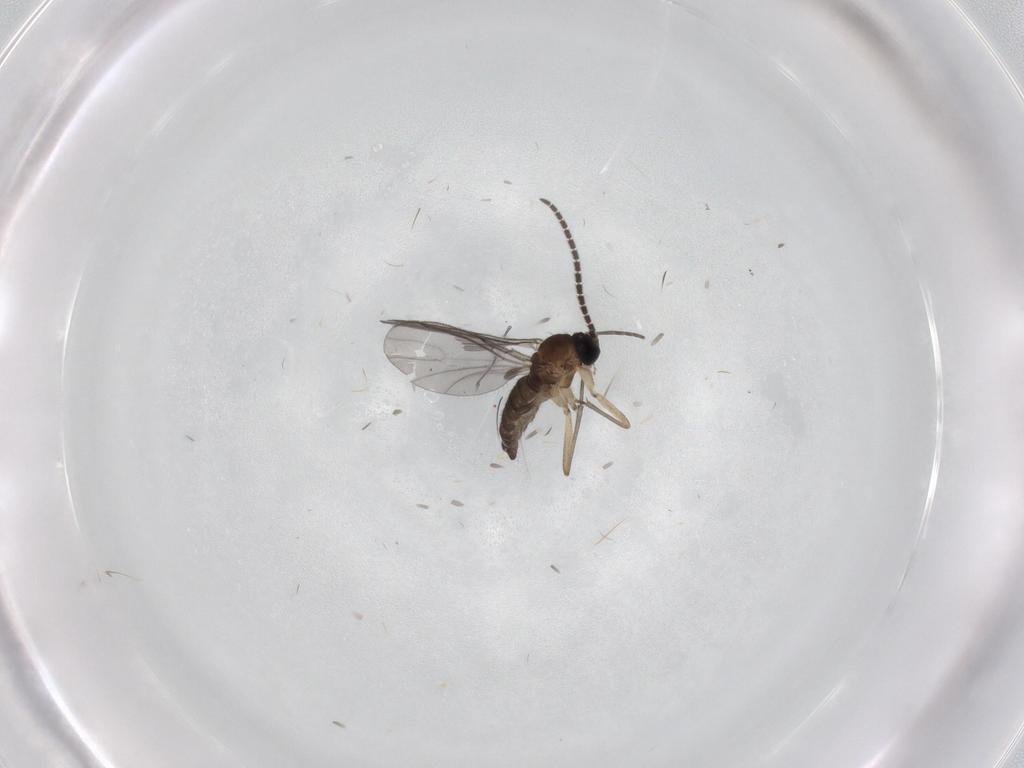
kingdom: Animalia
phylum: Arthropoda
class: Insecta
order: Diptera
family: Sciaridae
